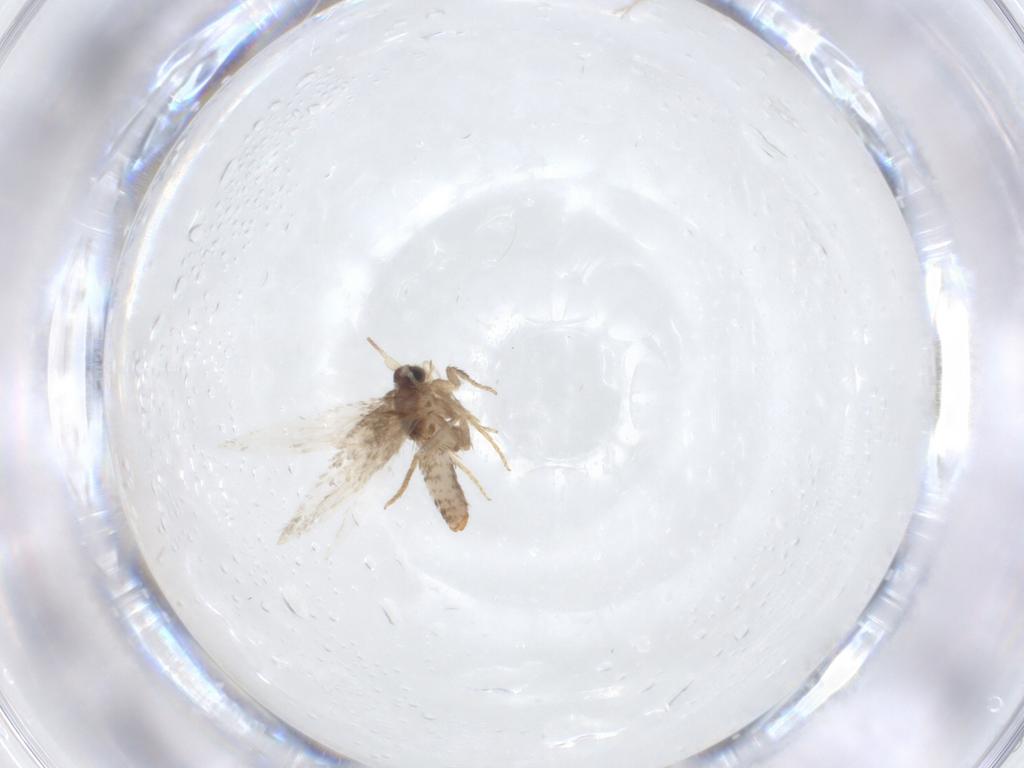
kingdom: Animalia
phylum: Arthropoda
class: Insecta
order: Lepidoptera
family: Nepticulidae
